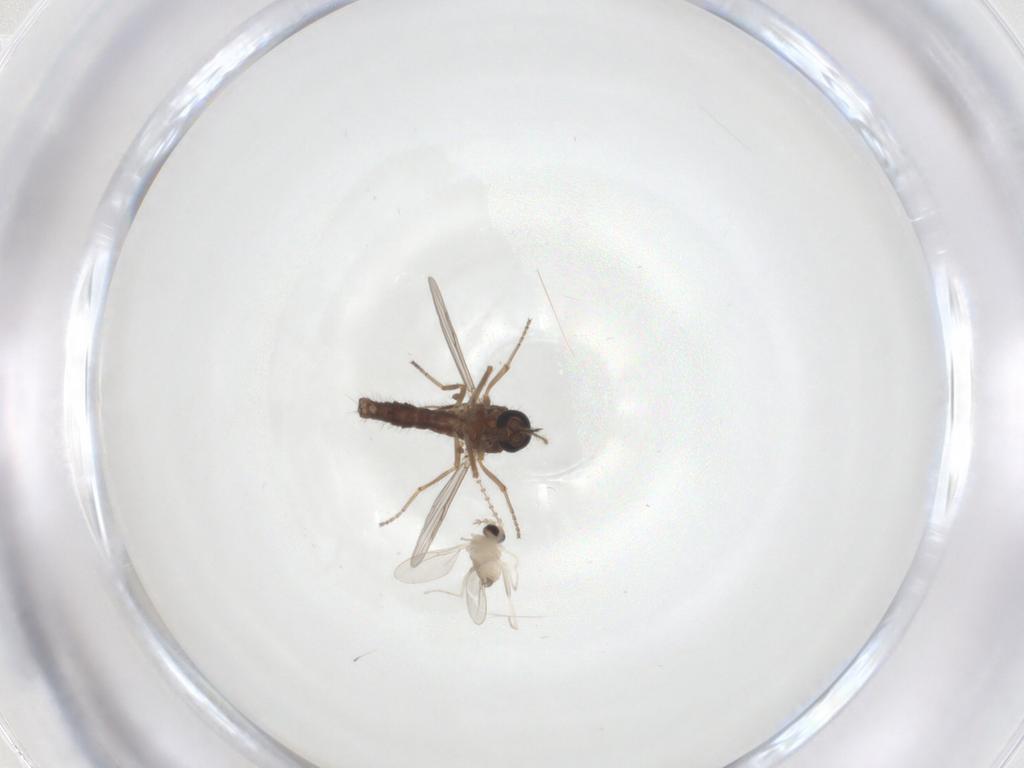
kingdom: Animalia
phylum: Arthropoda
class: Insecta
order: Diptera
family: Ceratopogonidae
